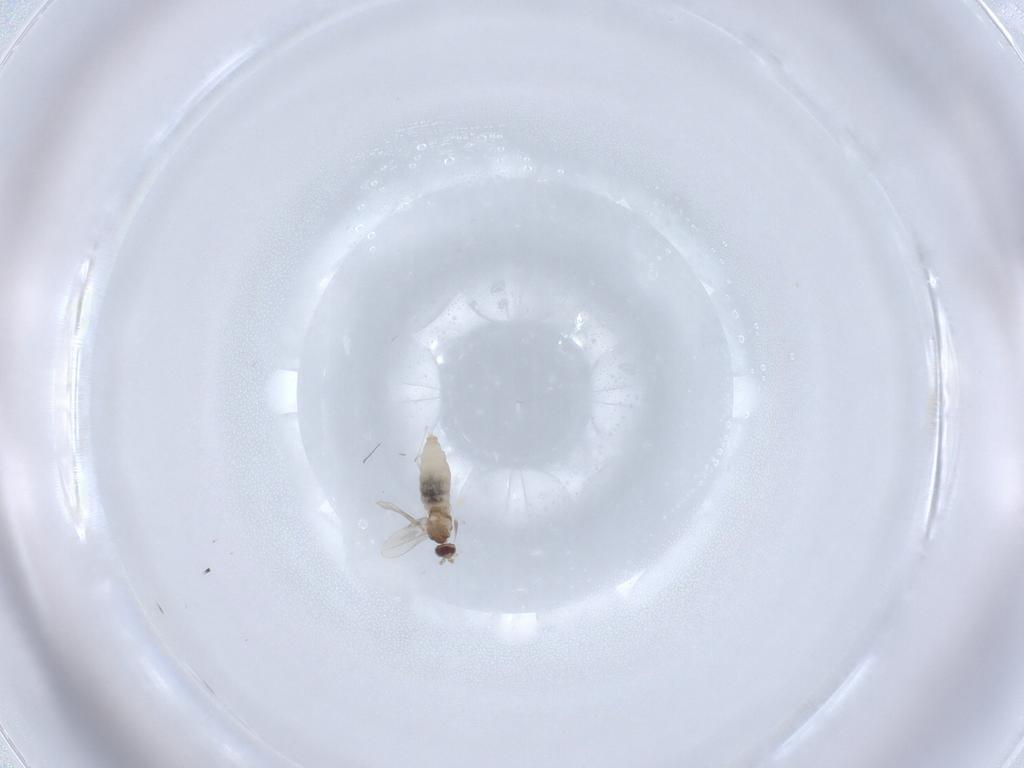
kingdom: Animalia
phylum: Arthropoda
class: Insecta
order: Diptera
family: Cecidomyiidae
